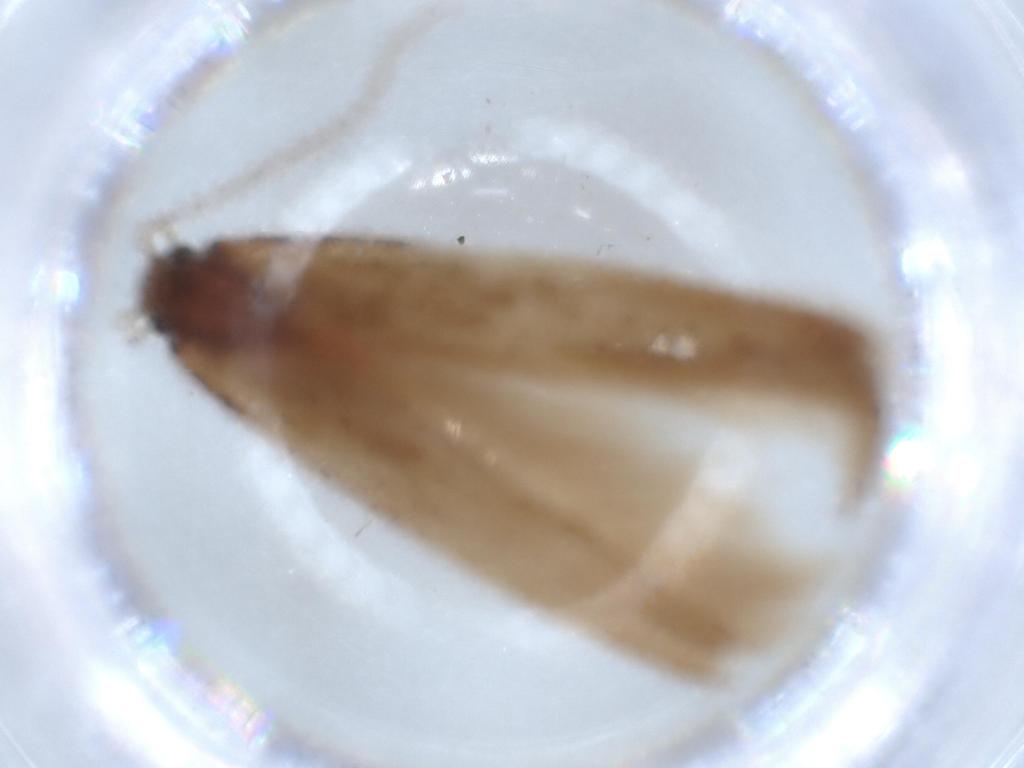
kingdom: Animalia
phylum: Arthropoda
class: Insecta
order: Lepidoptera
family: Stathmopodidae
